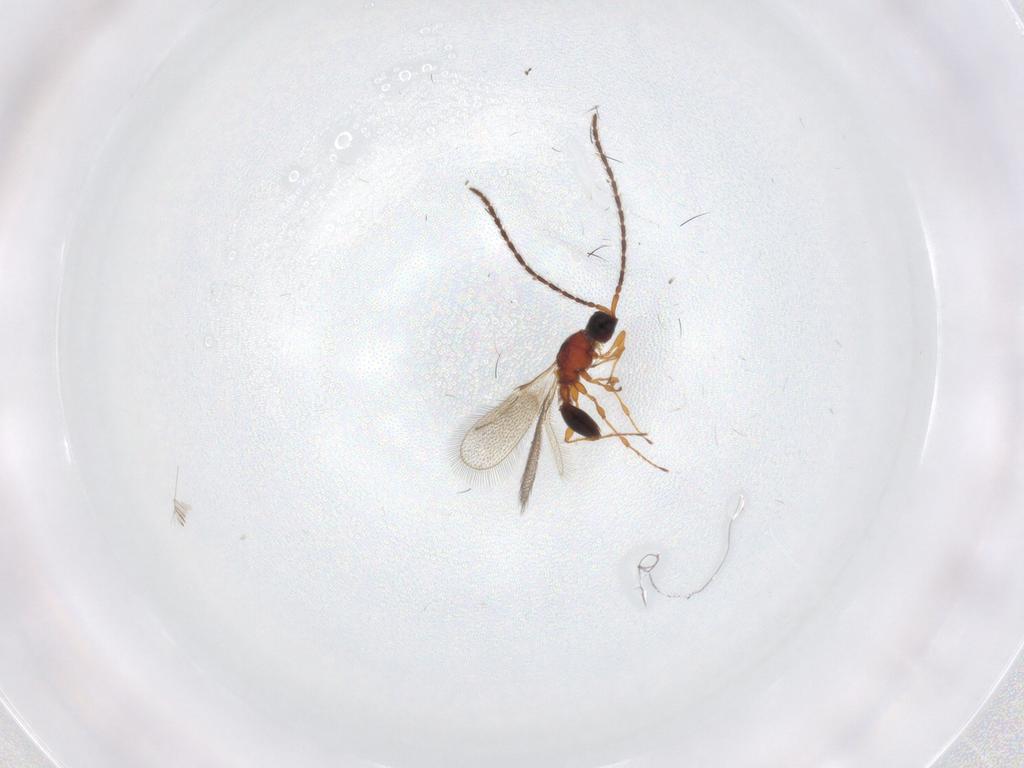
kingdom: Animalia
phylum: Arthropoda
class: Insecta
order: Hymenoptera
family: Diapriidae
